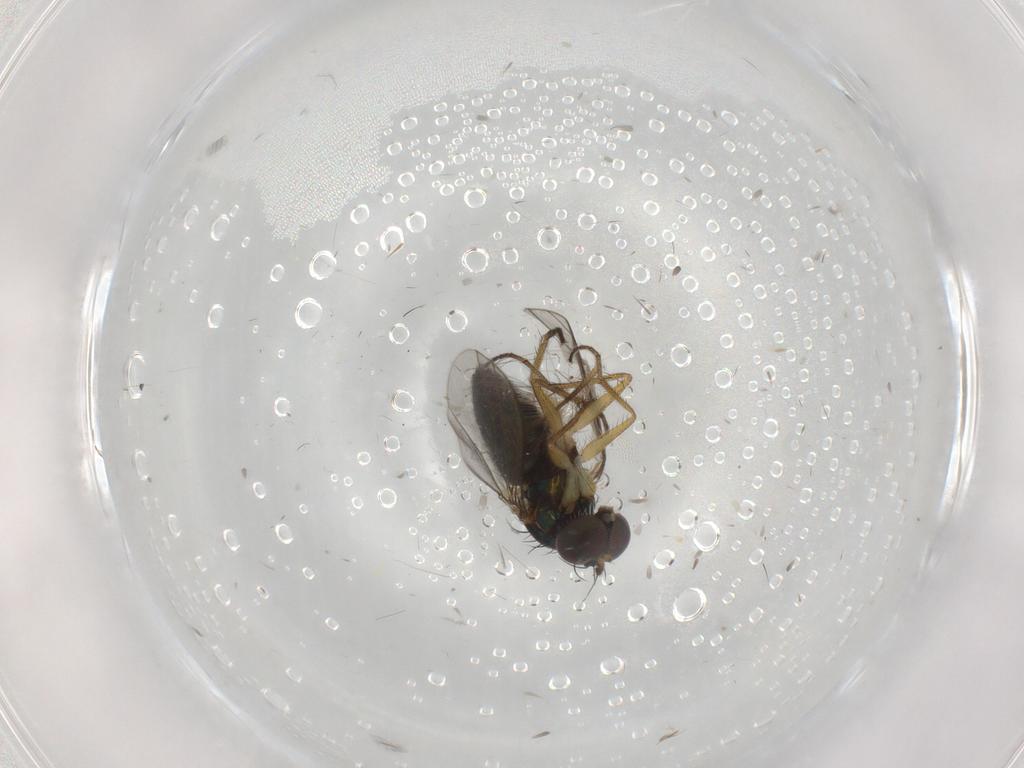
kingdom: Animalia
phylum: Arthropoda
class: Insecta
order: Diptera
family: Chironomidae
